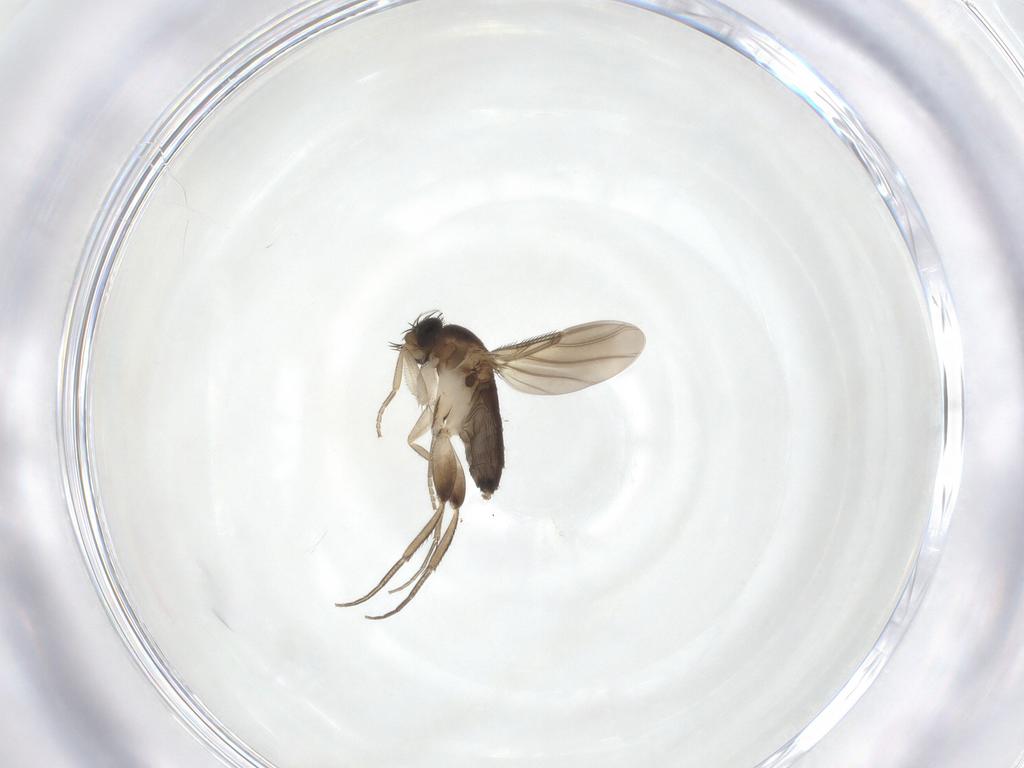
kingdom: Animalia
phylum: Arthropoda
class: Insecta
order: Diptera
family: Phoridae
